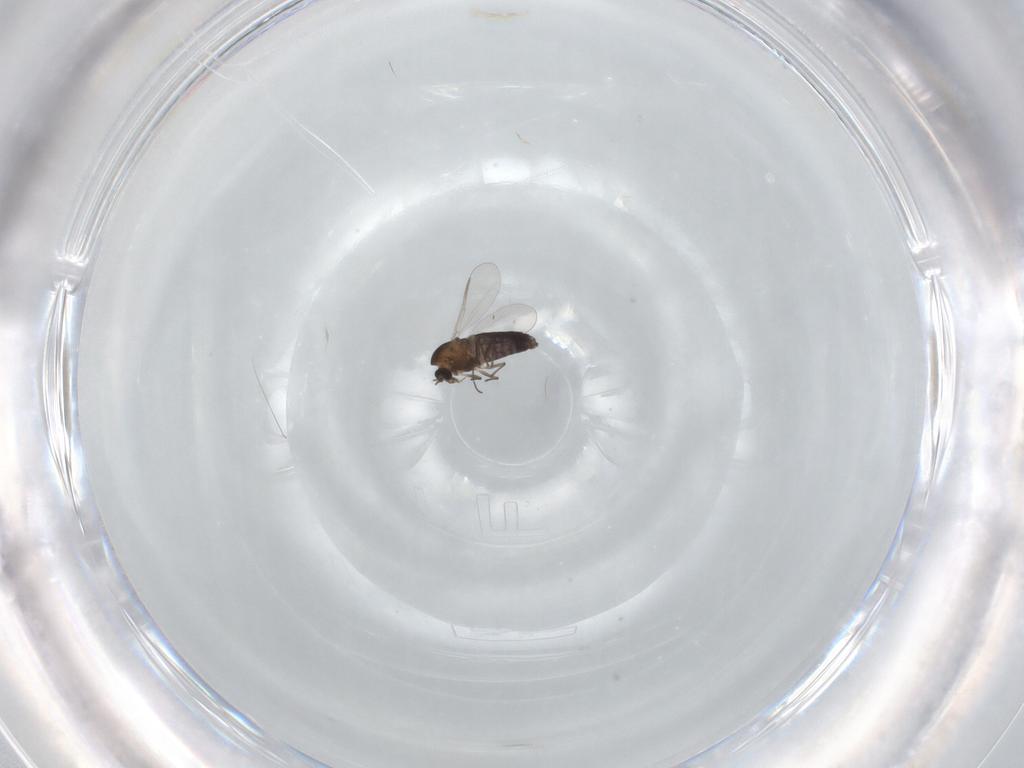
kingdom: Animalia
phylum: Arthropoda
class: Insecta
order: Diptera
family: Chironomidae
